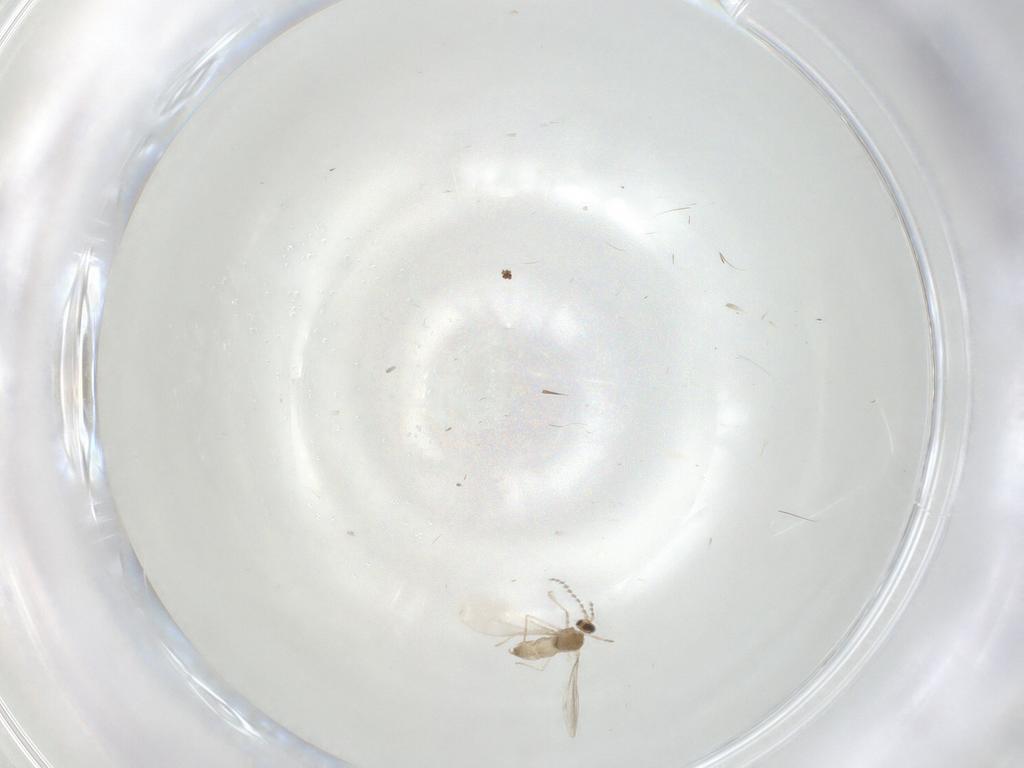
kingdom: Animalia
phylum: Arthropoda
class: Insecta
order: Diptera
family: Cecidomyiidae
